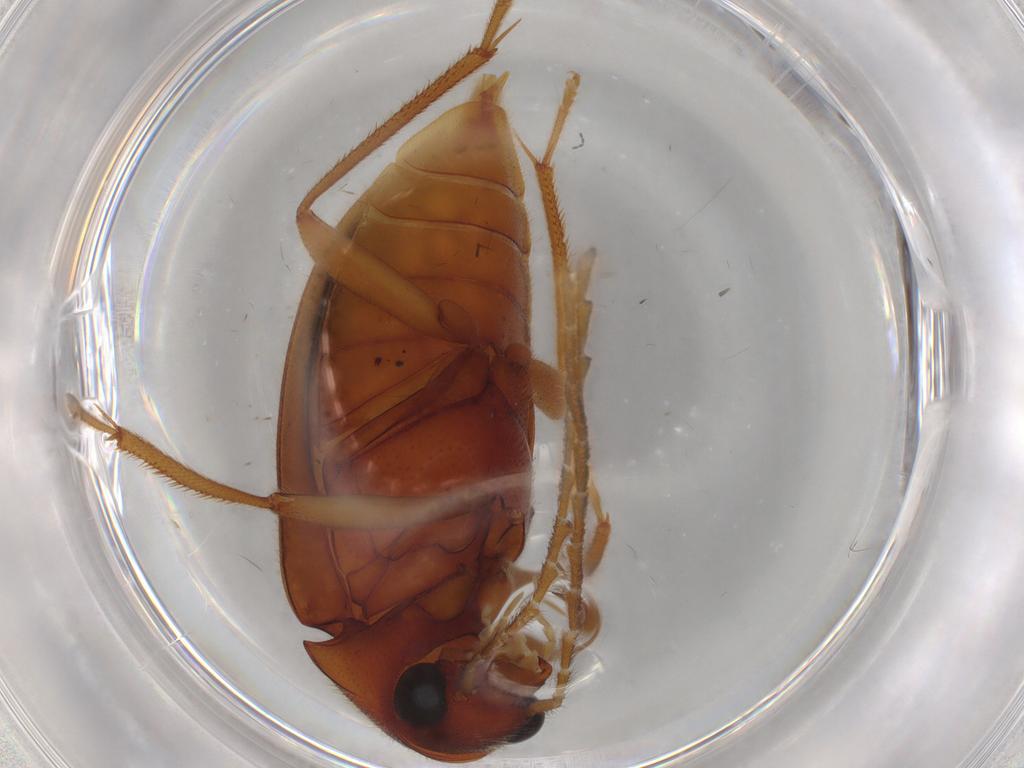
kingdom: Animalia
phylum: Arthropoda
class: Insecta
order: Coleoptera
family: Ptilodactylidae
